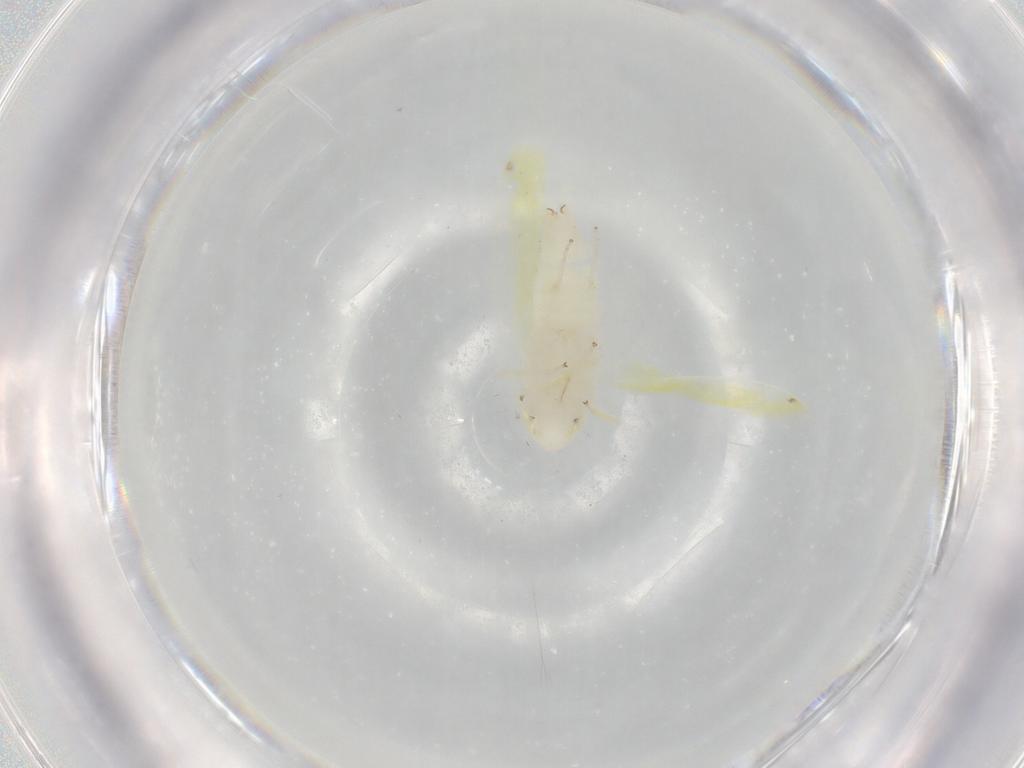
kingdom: Animalia
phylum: Arthropoda
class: Insecta
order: Hemiptera
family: Cicadellidae
